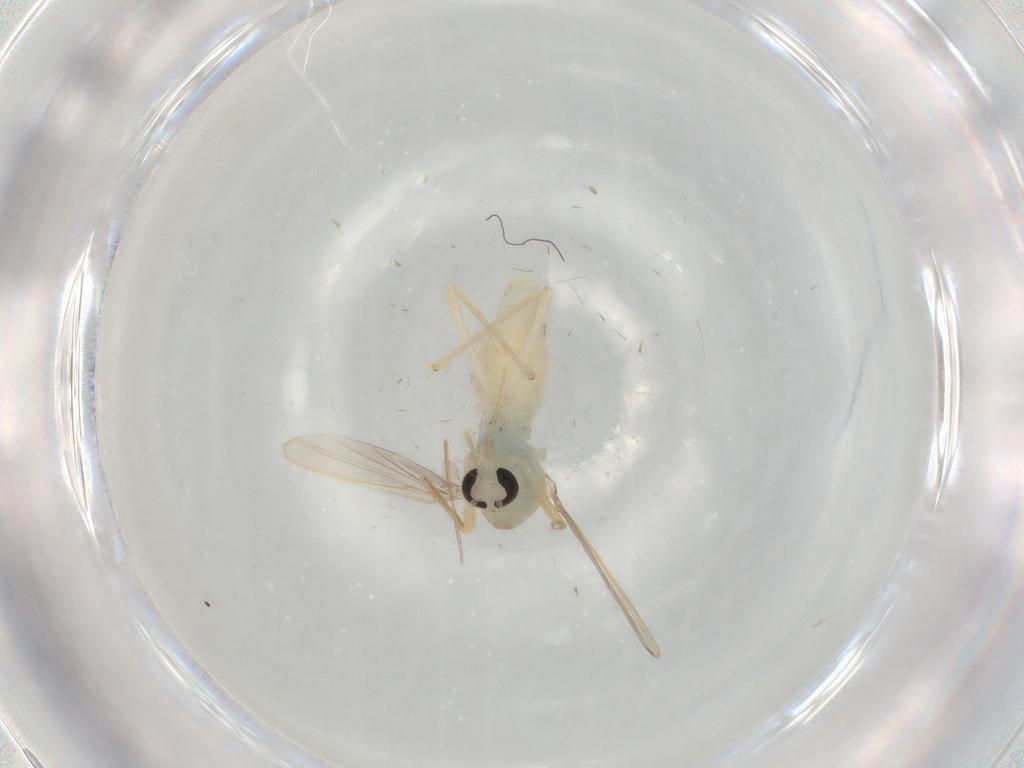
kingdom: Animalia
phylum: Arthropoda
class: Insecta
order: Diptera
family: Chironomidae
